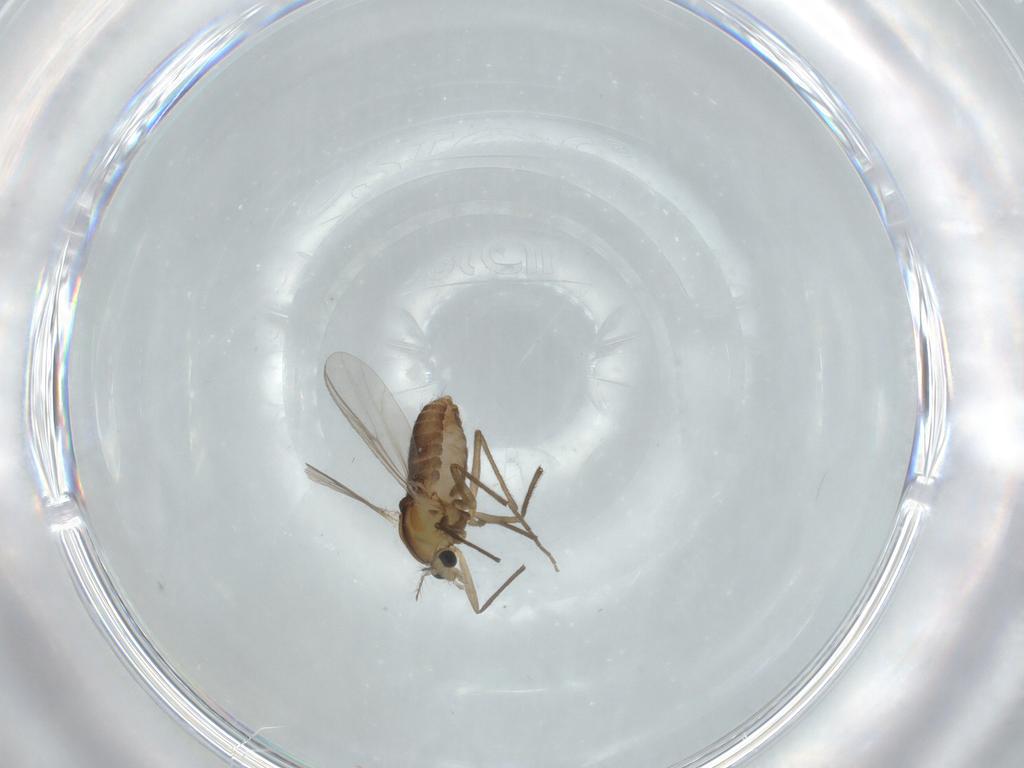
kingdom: Animalia
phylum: Arthropoda
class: Insecta
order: Diptera
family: Chironomidae
